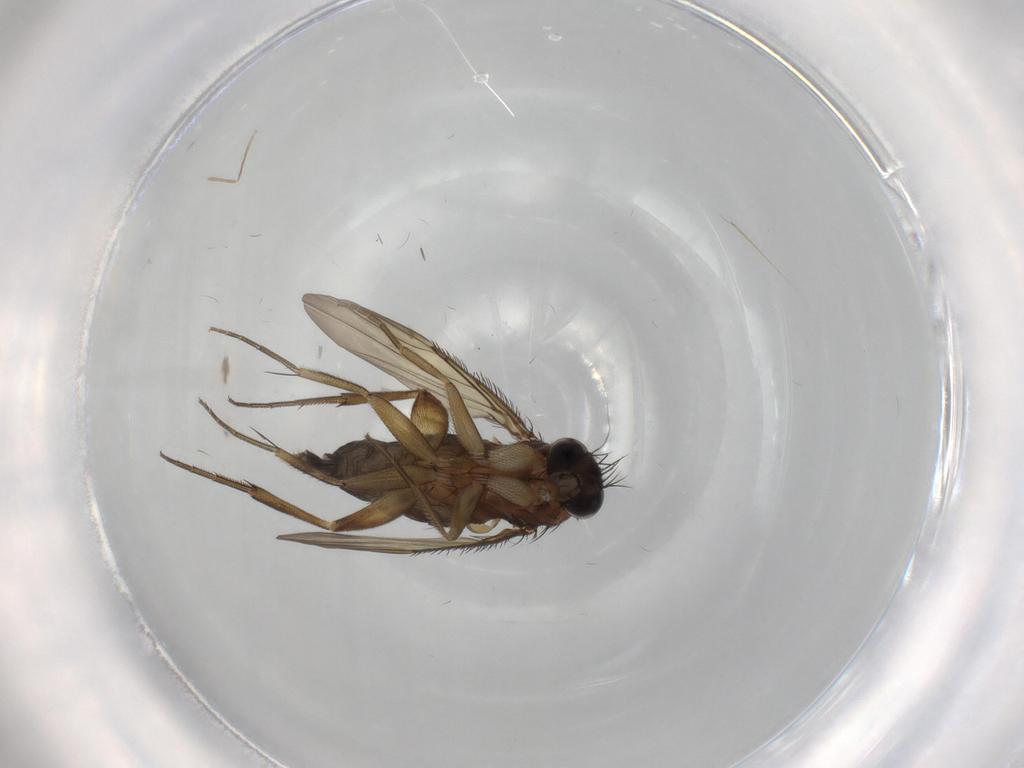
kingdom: Animalia
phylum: Arthropoda
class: Insecta
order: Diptera
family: Phoridae
